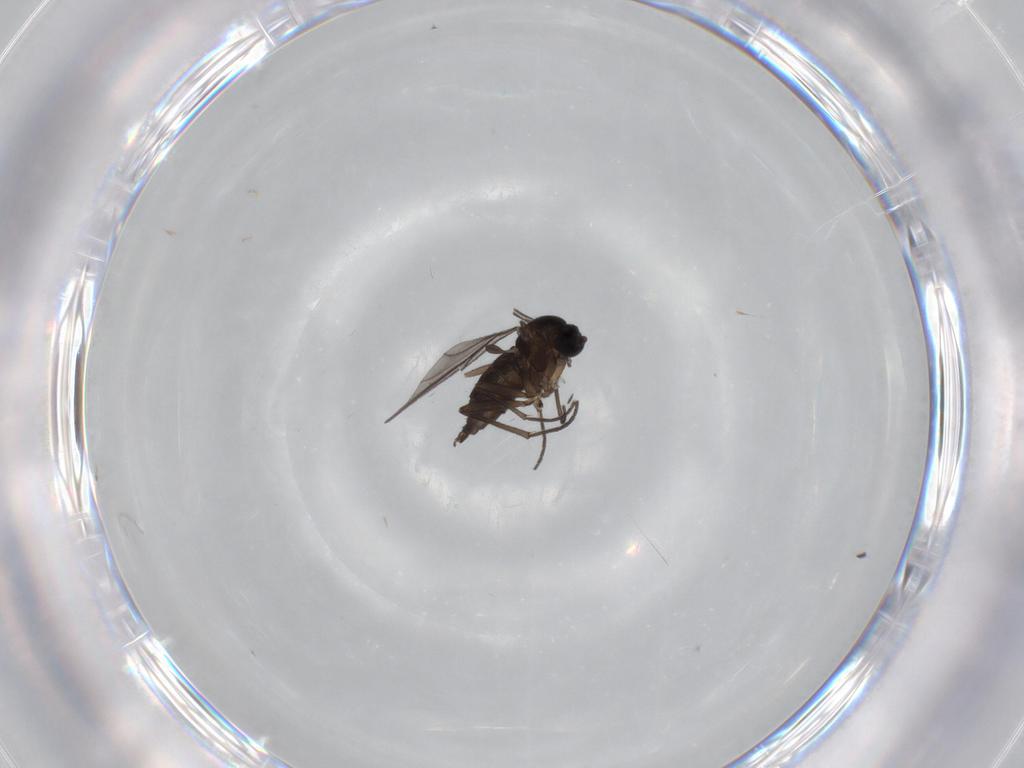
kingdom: Animalia
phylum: Arthropoda
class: Insecta
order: Diptera
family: Sciaridae
